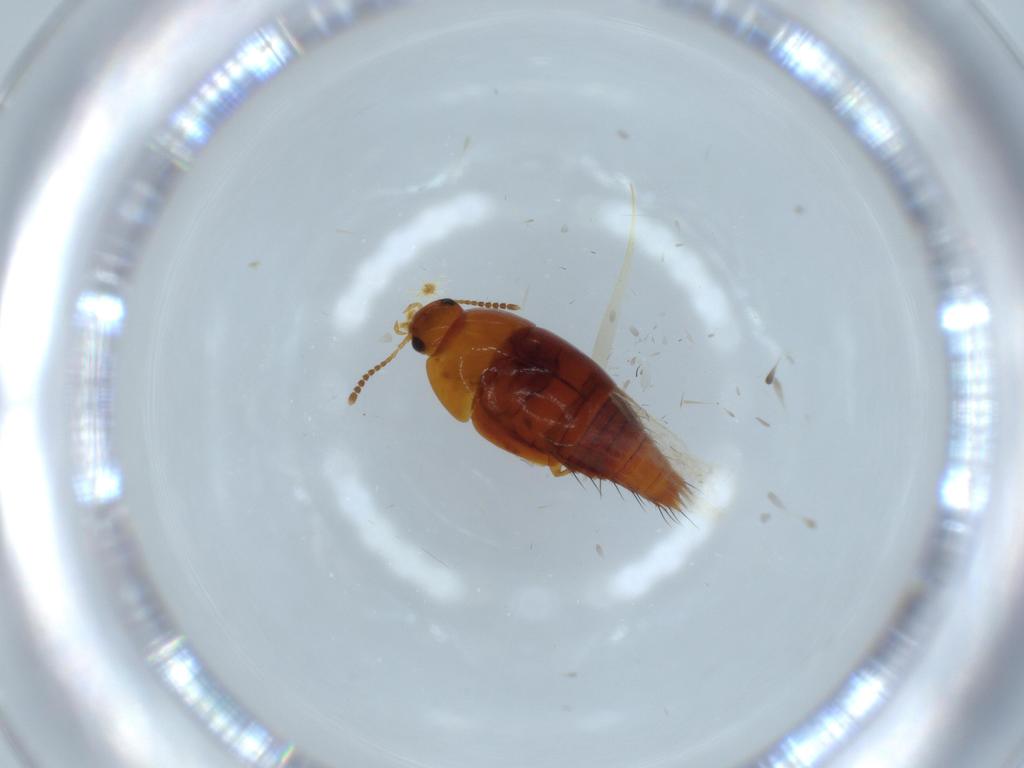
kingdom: Animalia
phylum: Arthropoda
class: Insecta
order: Coleoptera
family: Staphylinidae
